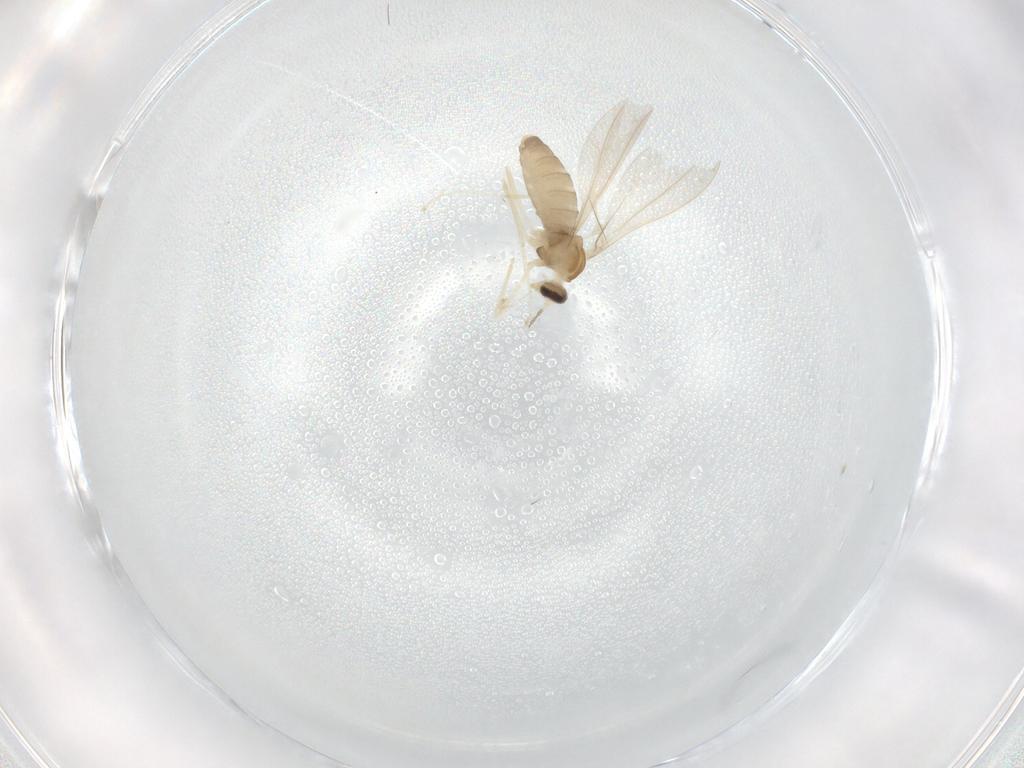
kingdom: Animalia
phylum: Arthropoda
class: Insecta
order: Diptera
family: Cecidomyiidae
